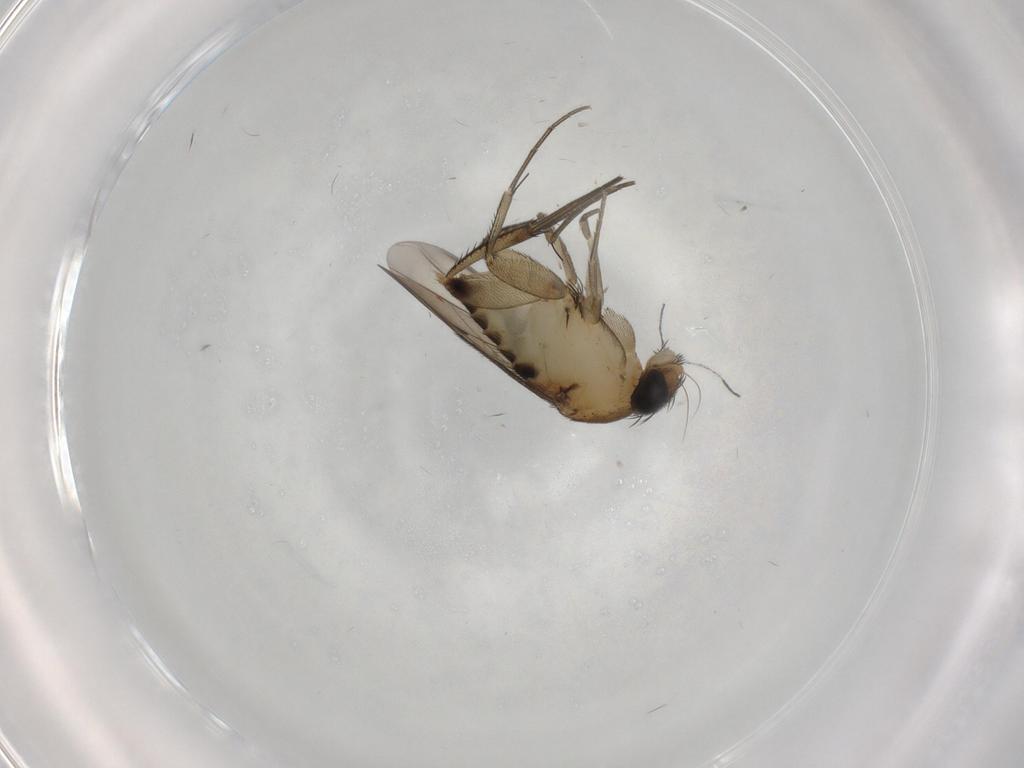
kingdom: Animalia
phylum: Arthropoda
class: Insecta
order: Diptera
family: Phoridae
